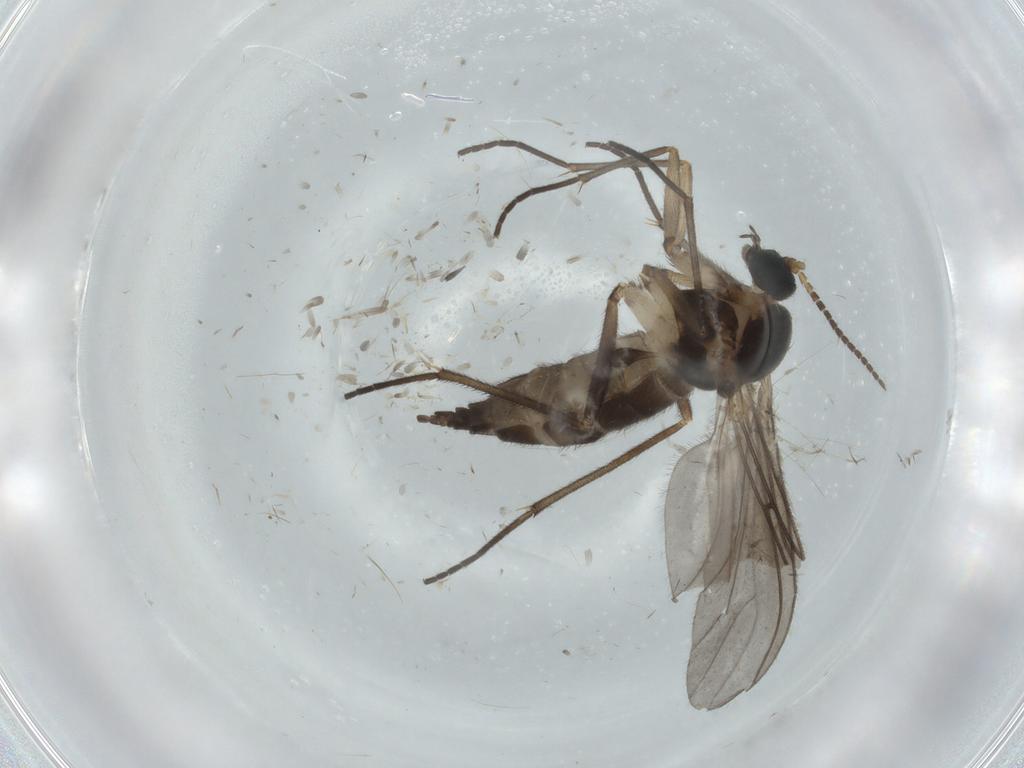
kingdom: Animalia
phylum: Arthropoda
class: Insecta
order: Diptera
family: Sciaridae
